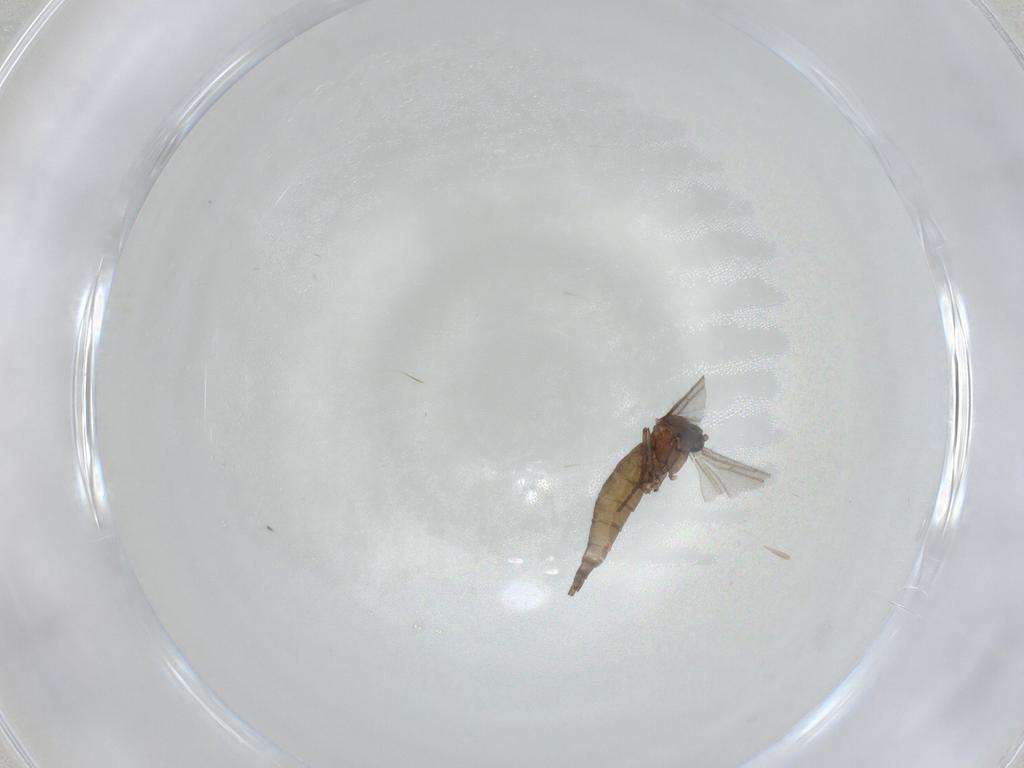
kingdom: Animalia
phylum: Arthropoda
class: Insecta
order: Diptera
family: Sciaridae
